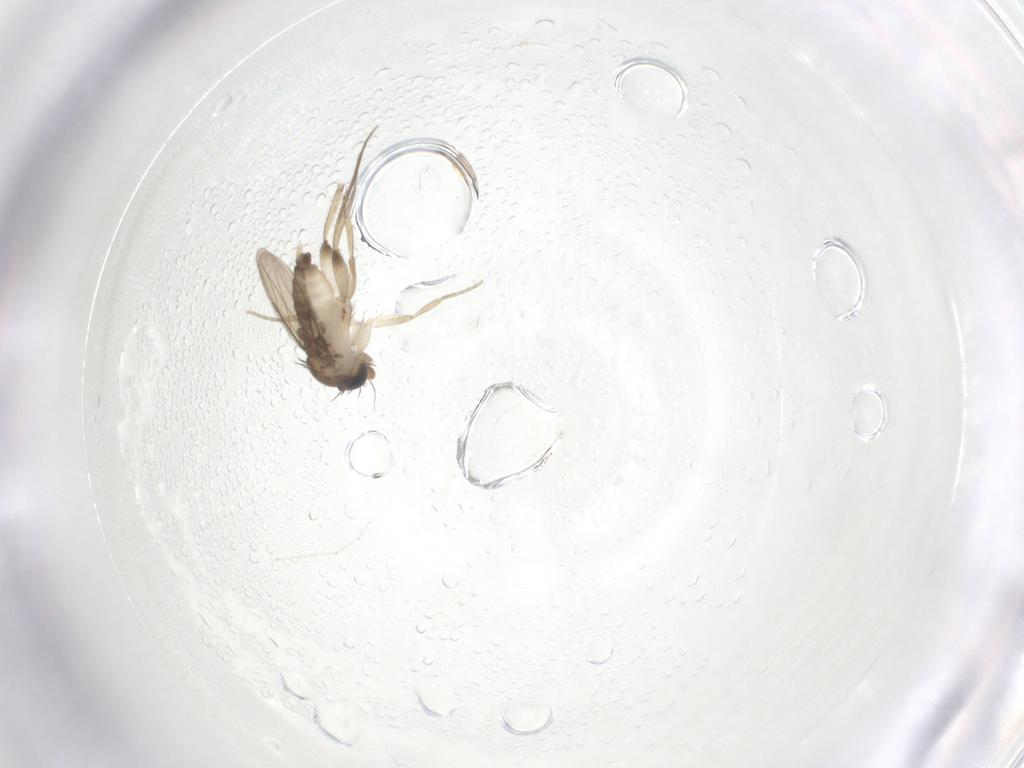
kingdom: Animalia
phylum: Arthropoda
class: Insecta
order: Diptera
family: Phoridae
